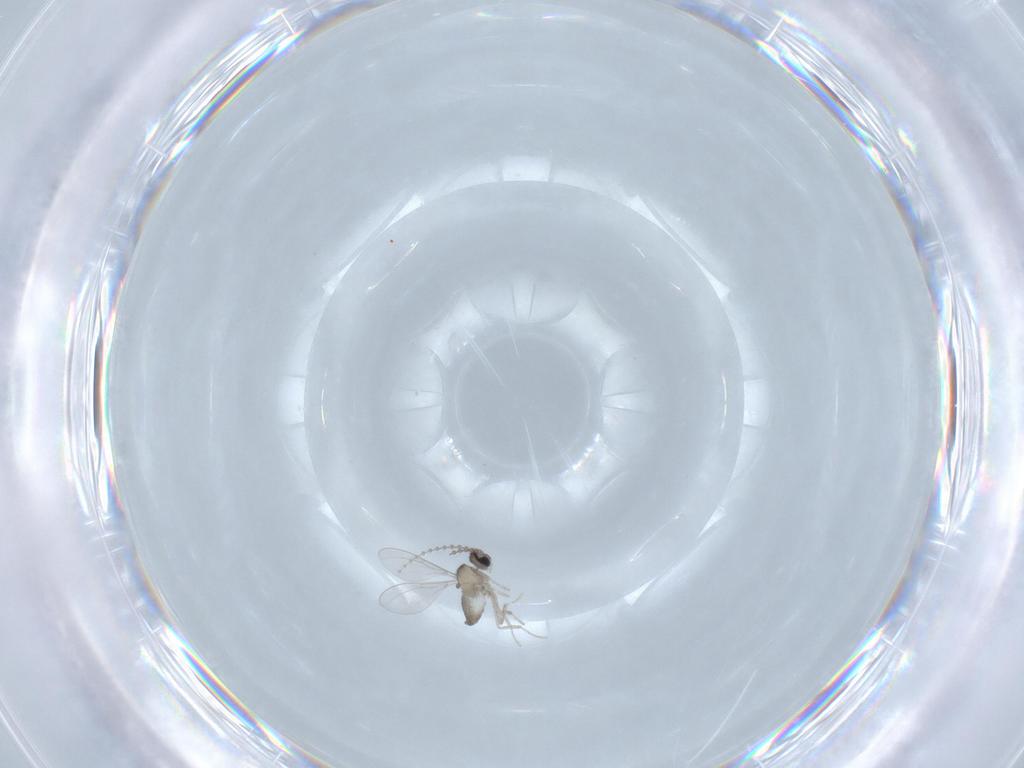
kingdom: Animalia
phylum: Arthropoda
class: Insecta
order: Diptera
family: Cecidomyiidae
